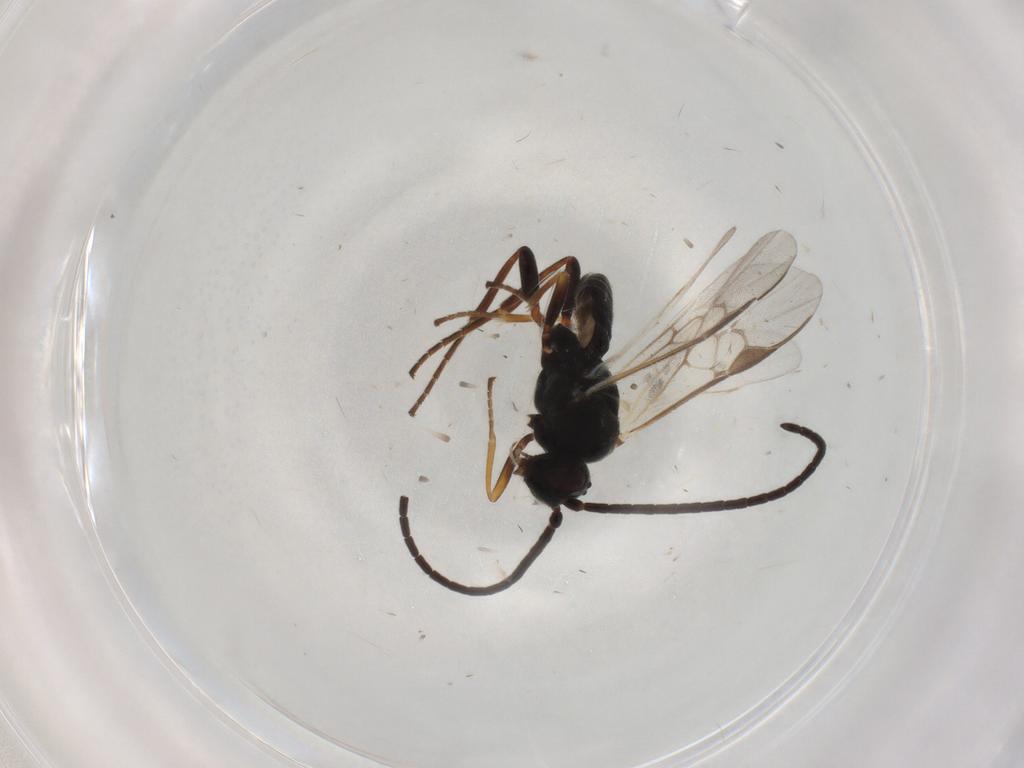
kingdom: Animalia
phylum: Arthropoda
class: Insecta
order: Hymenoptera
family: Braconidae
